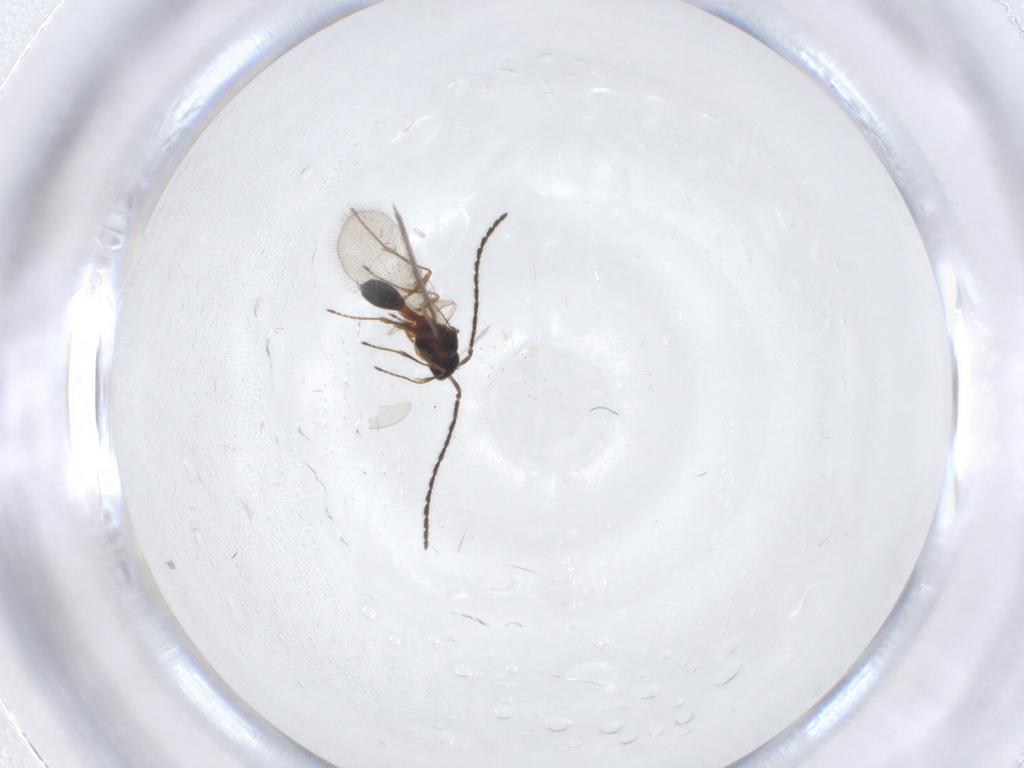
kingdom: Animalia
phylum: Arthropoda
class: Insecta
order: Hymenoptera
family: Diapriidae
